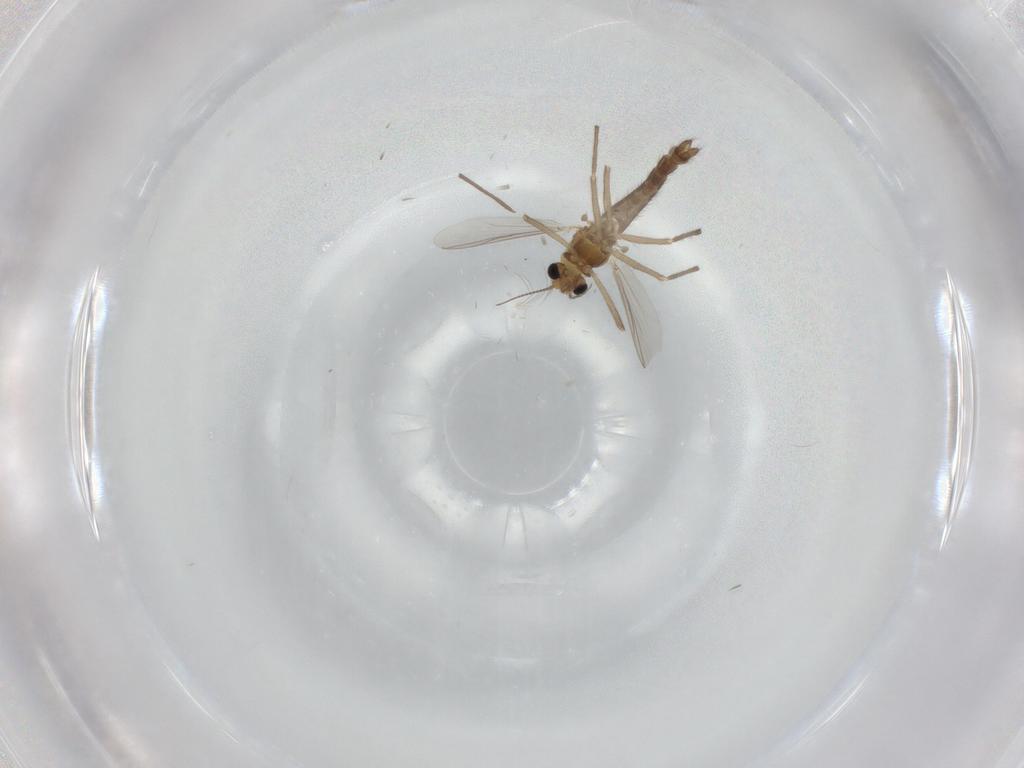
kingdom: Animalia
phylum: Arthropoda
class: Insecta
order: Diptera
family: Chironomidae
